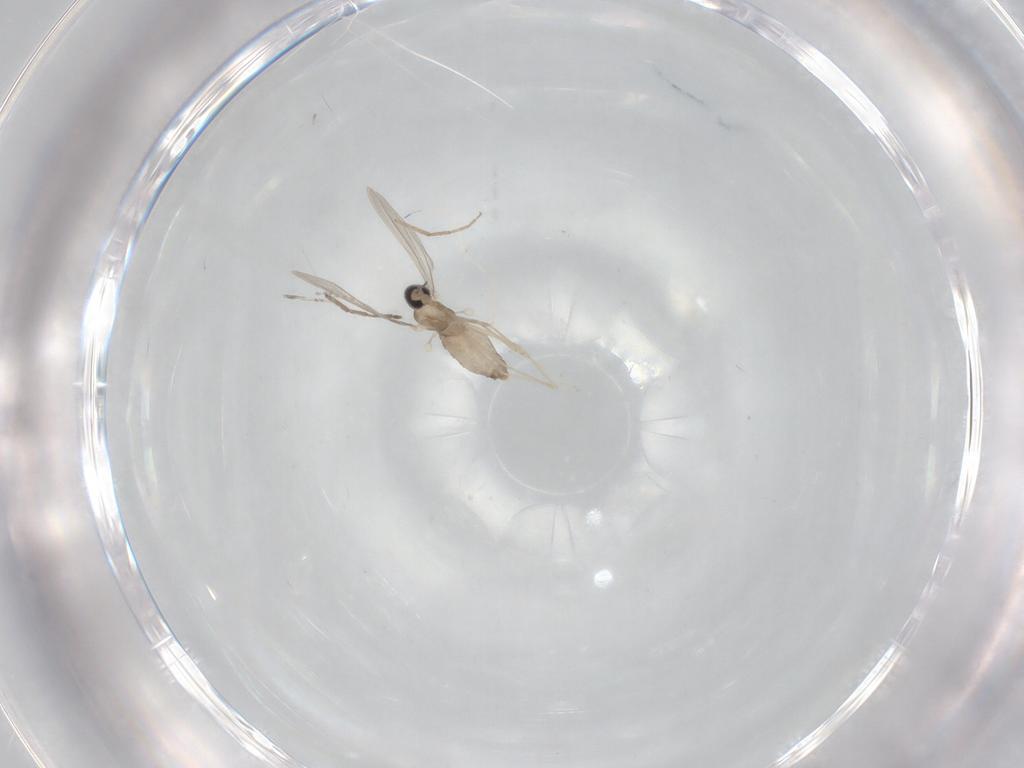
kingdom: Animalia
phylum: Arthropoda
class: Insecta
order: Diptera
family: Chironomidae
